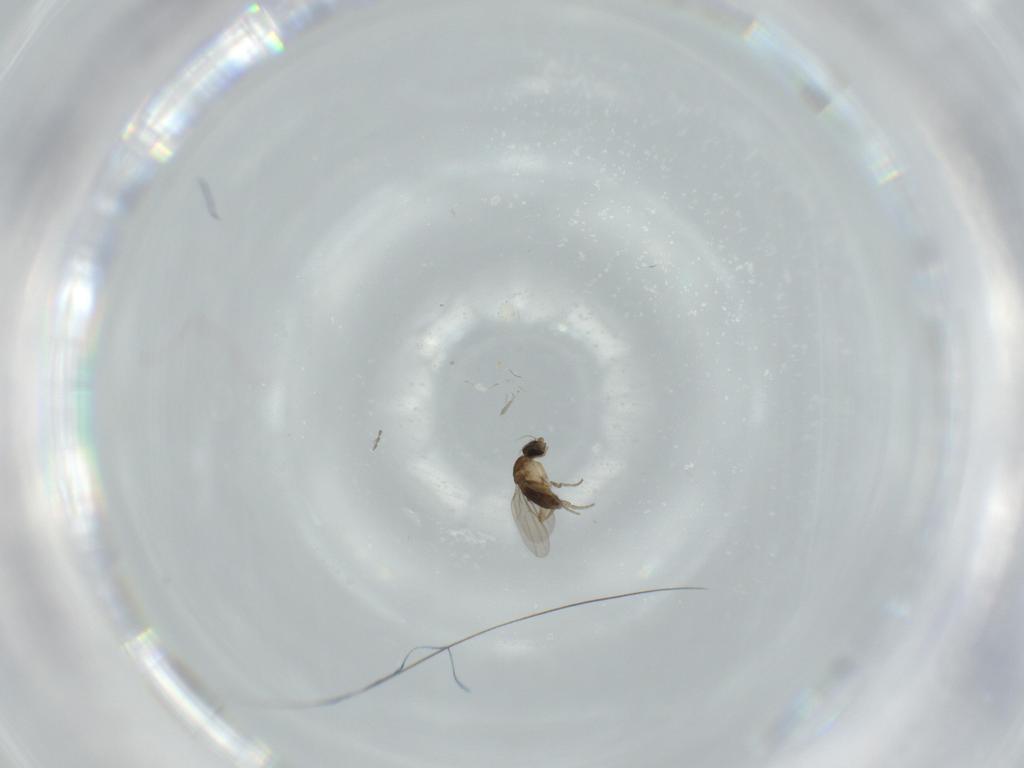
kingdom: Animalia
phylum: Arthropoda
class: Insecta
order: Diptera
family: Phoridae
